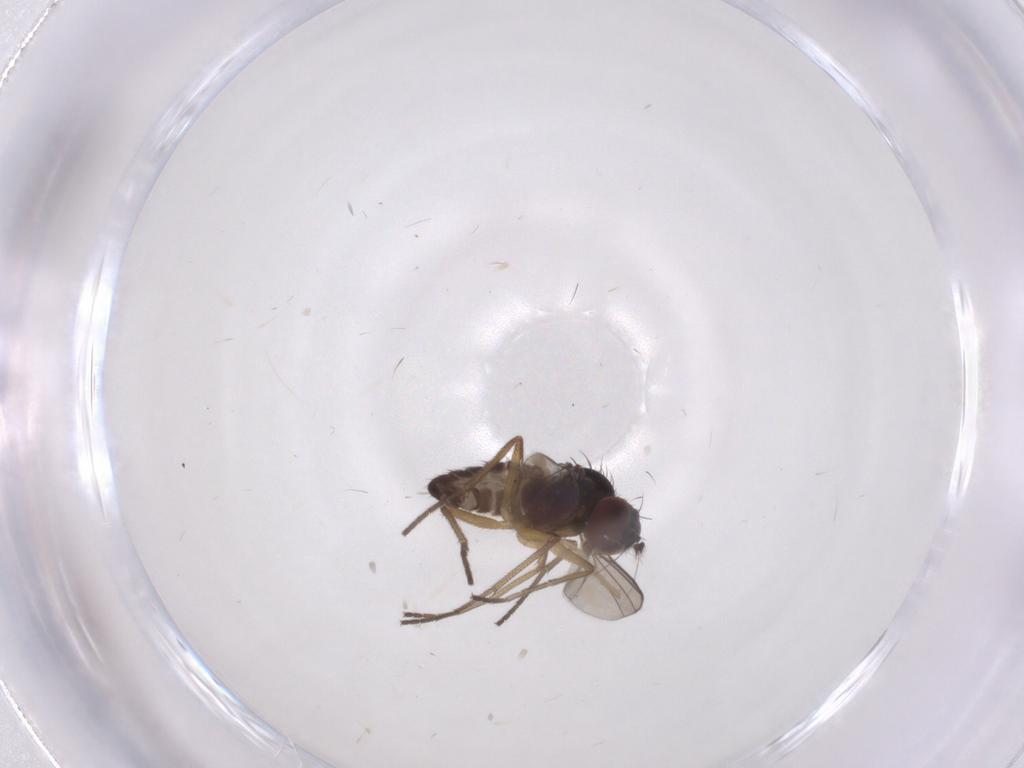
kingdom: Animalia
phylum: Arthropoda
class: Insecta
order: Diptera
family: Dolichopodidae
